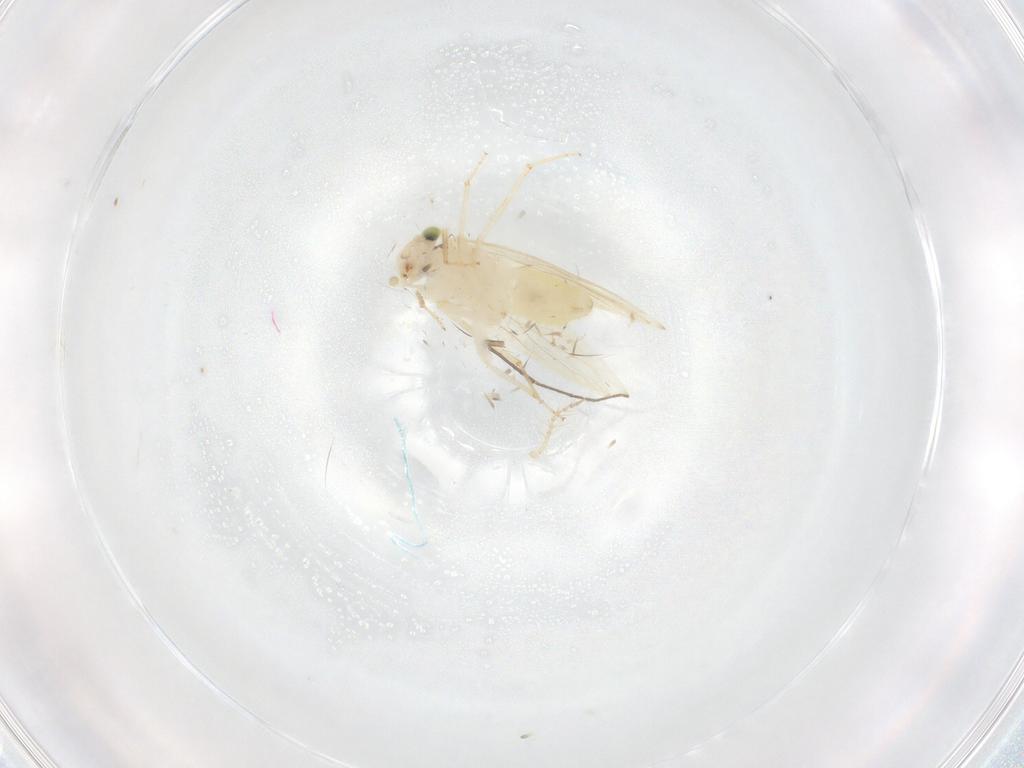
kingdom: Animalia
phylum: Arthropoda
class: Insecta
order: Psocodea
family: Lepidopsocidae
